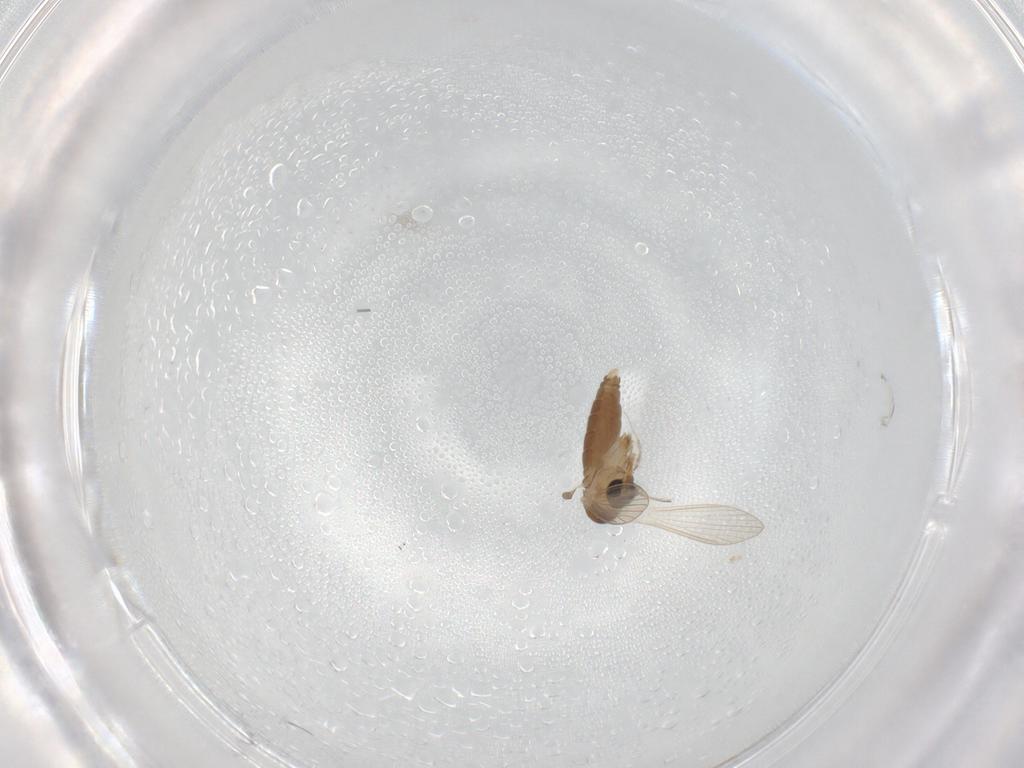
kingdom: Animalia
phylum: Arthropoda
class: Insecta
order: Diptera
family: Psychodidae
